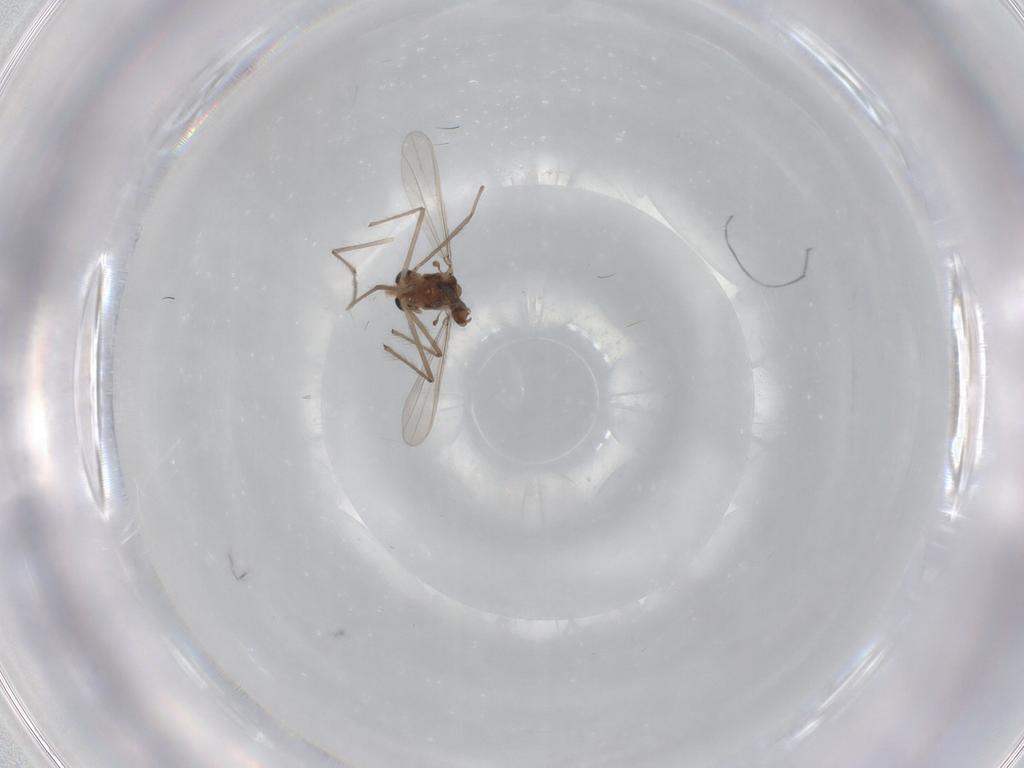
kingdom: Animalia
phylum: Arthropoda
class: Insecta
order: Diptera
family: Chironomidae
